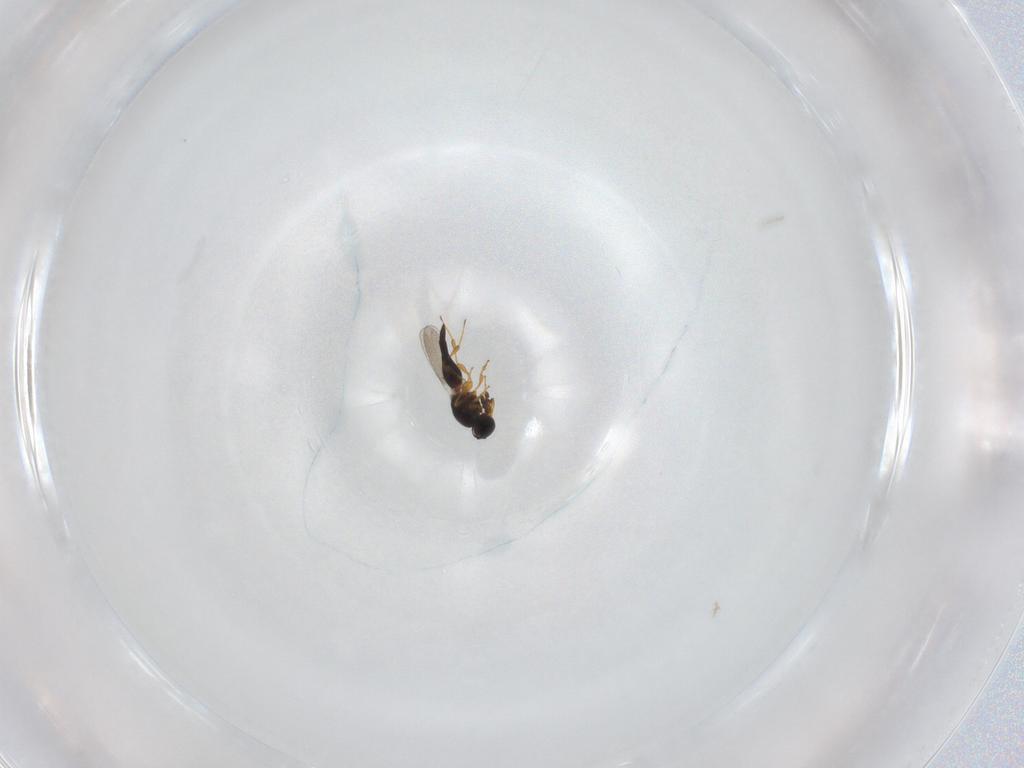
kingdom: Animalia
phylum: Arthropoda
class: Insecta
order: Hymenoptera
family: Platygastridae
